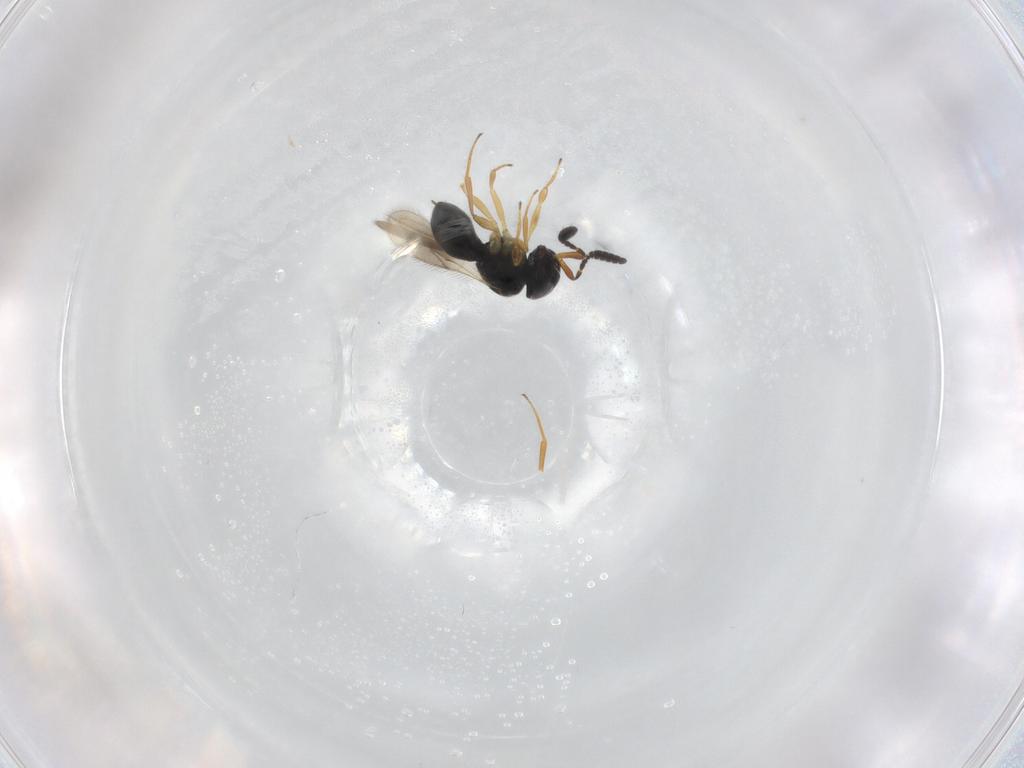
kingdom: Animalia
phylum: Arthropoda
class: Insecta
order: Hymenoptera
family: Scelionidae
